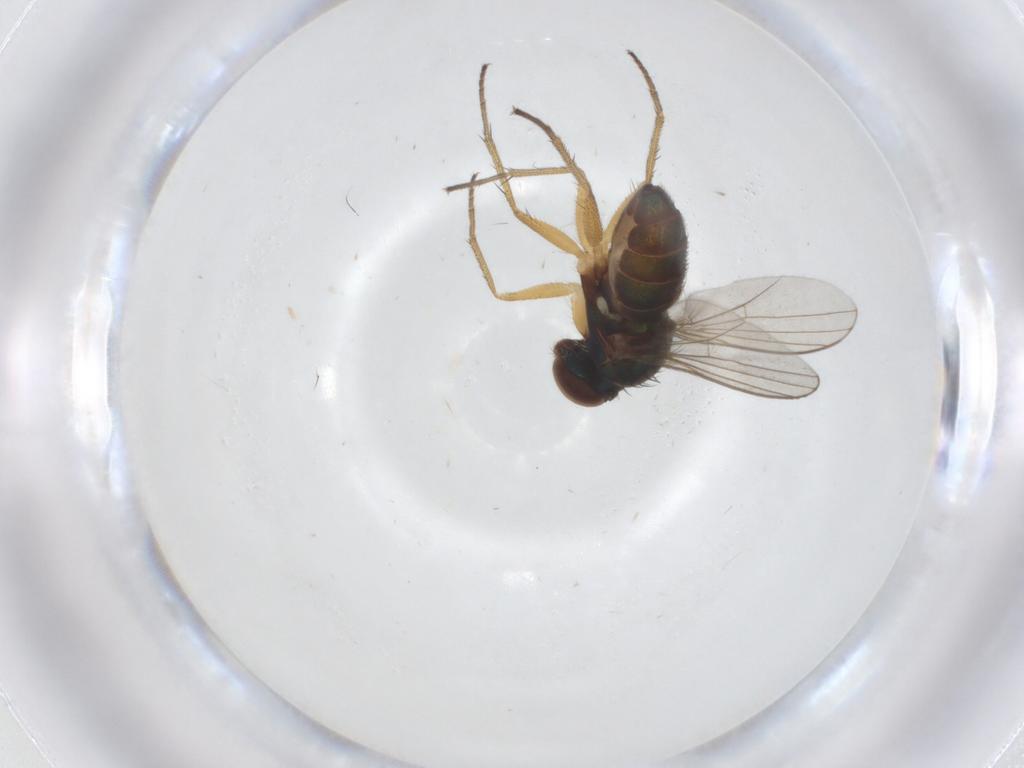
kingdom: Animalia
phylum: Arthropoda
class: Insecta
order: Diptera
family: Dolichopodidae
